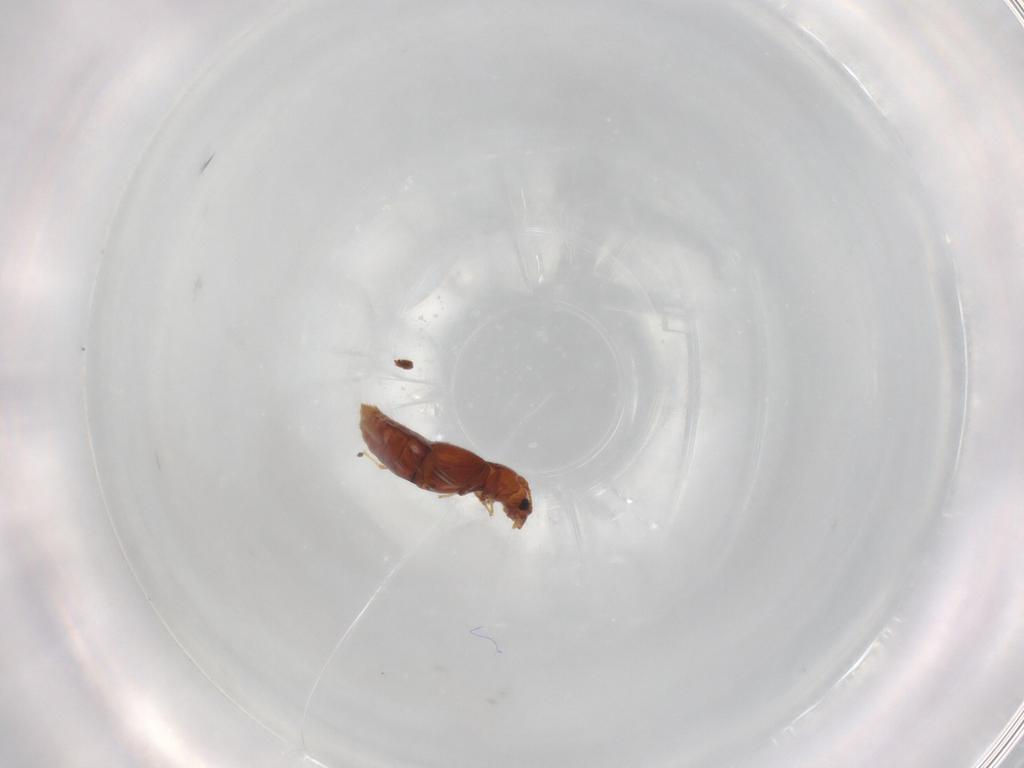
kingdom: Animalia
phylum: Arthropoda
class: Insecta
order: Coleoptera
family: Staphylinidae
